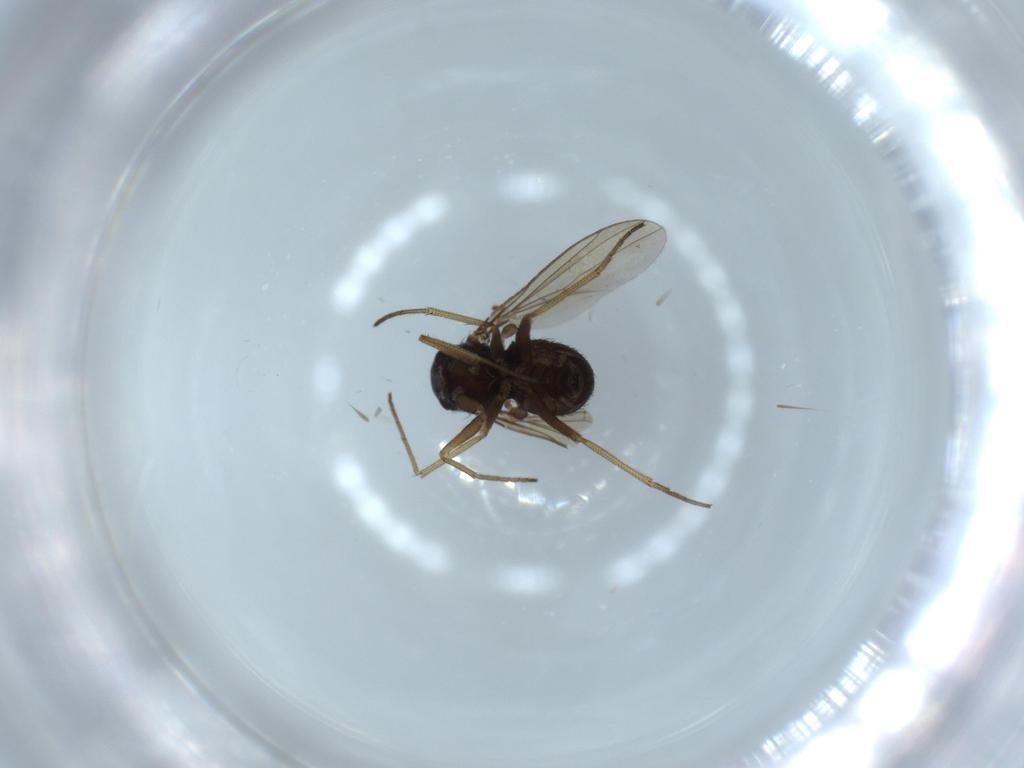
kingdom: Animalia
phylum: Arthropoda
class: Insecta
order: Diptera
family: Dolichopodidae
